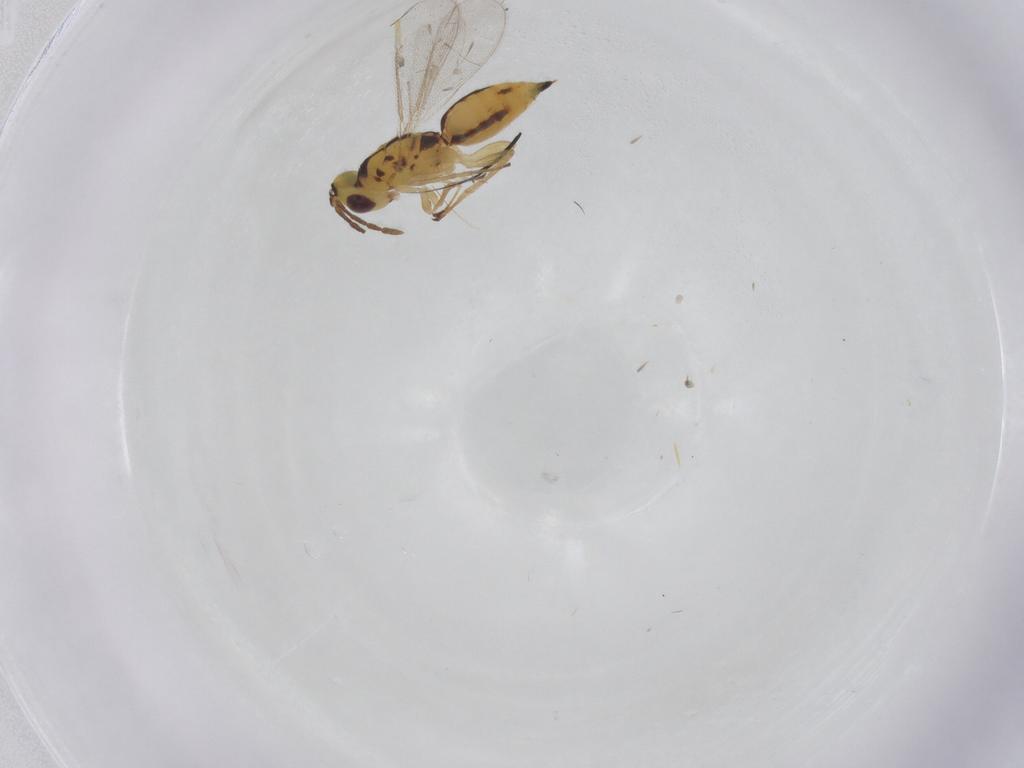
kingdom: Animalia
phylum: Arthropoda
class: Insecta
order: Hymenoptera
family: Eulophidae
